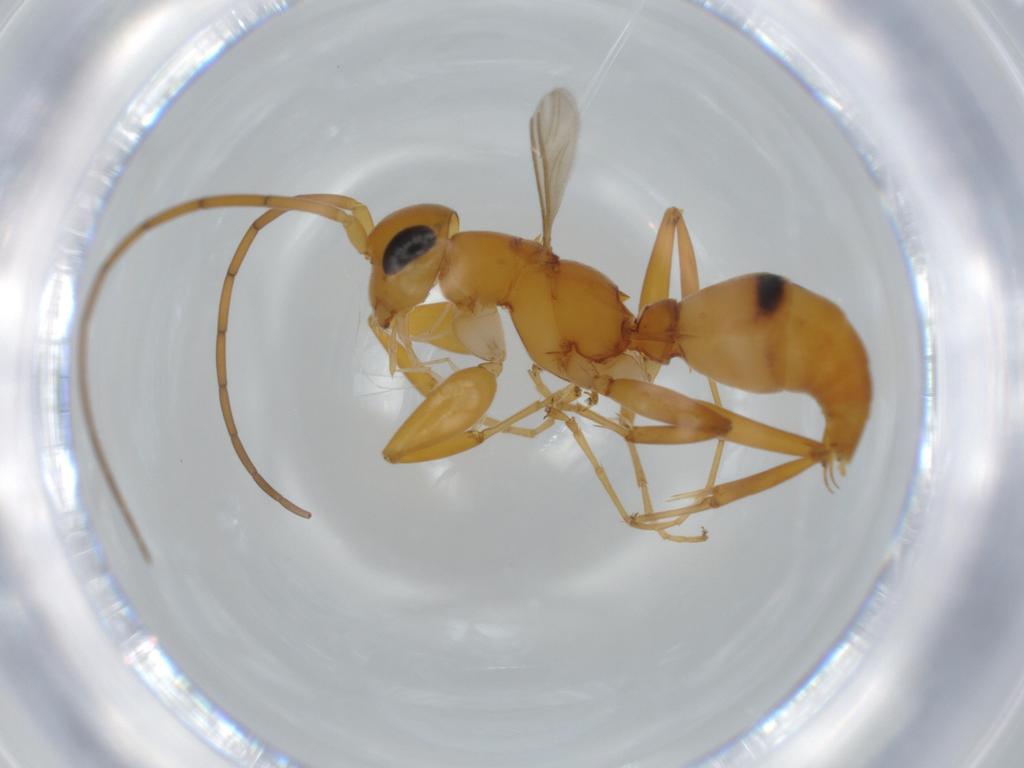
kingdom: Animalia
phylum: Arthropoda
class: Insecta
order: Hymenoptera
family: Rhopalosomatidae
